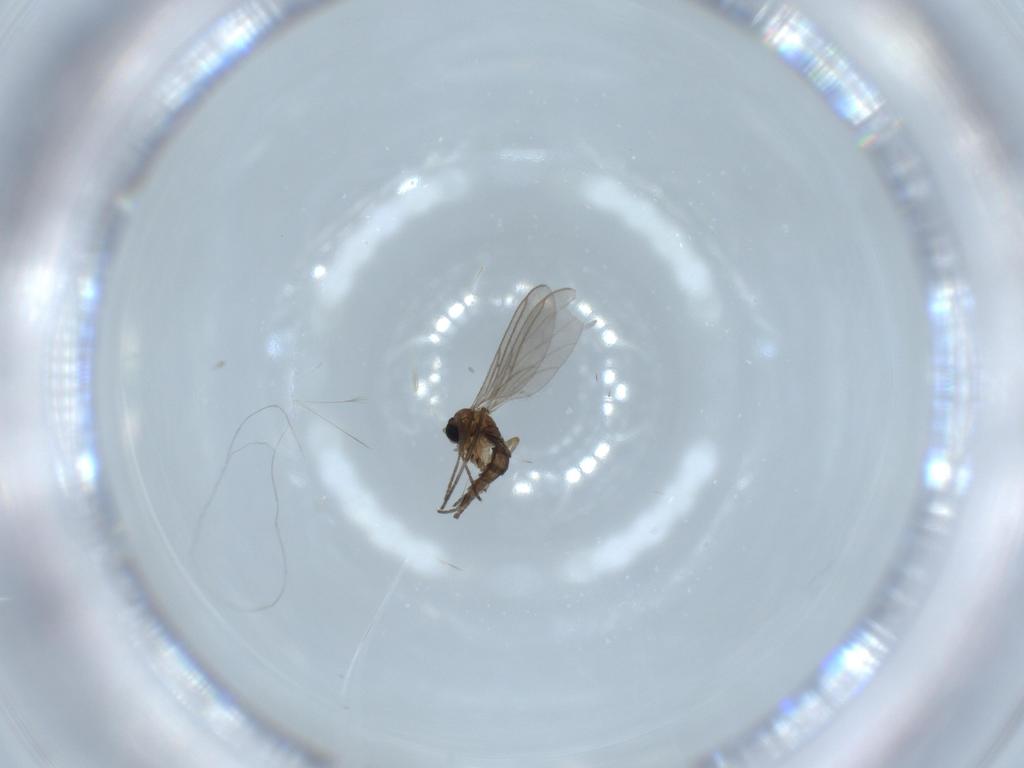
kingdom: Animalia
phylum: Arthropoda
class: Insecta
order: Diptera
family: Sciaridae
